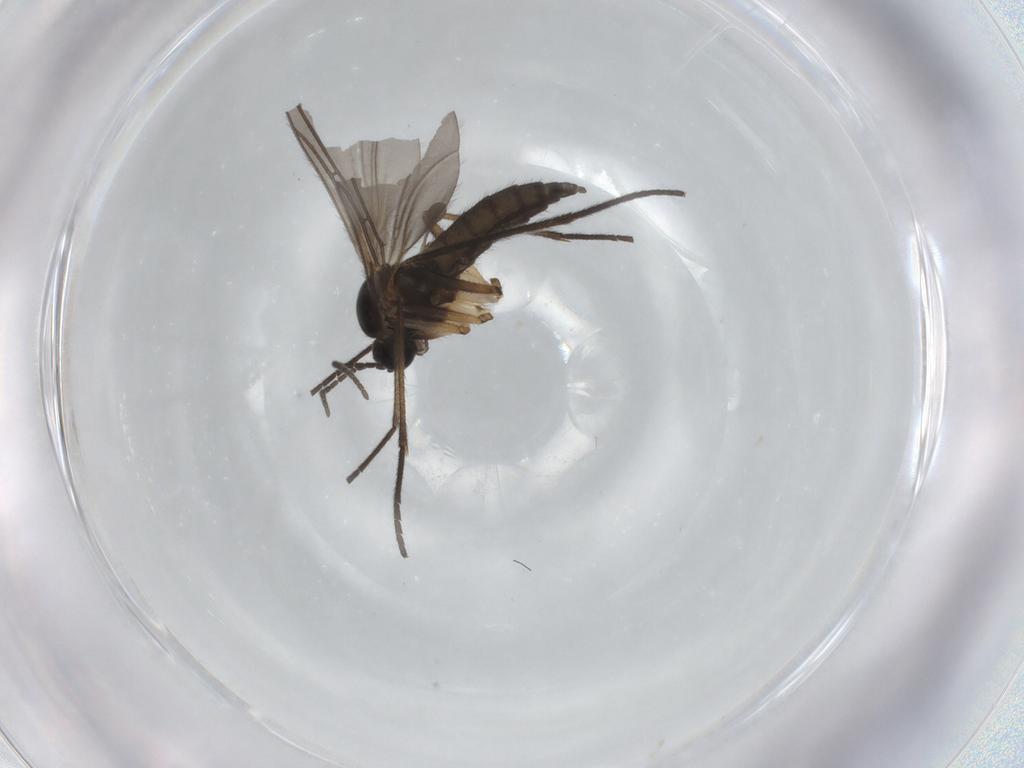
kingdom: Animalia
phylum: Arthropoda
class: Insecta
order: Diptera
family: Sciaridae
